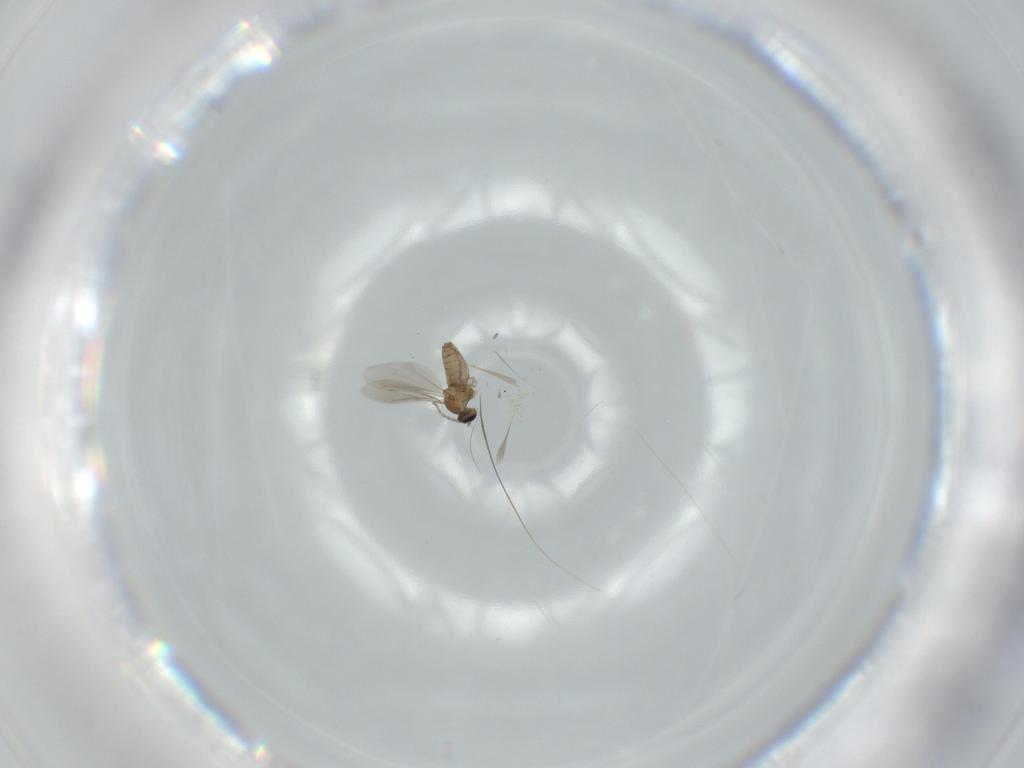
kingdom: Animalia
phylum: Arthropoda
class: Insecta
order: Diptera
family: Cecidomyiidae
